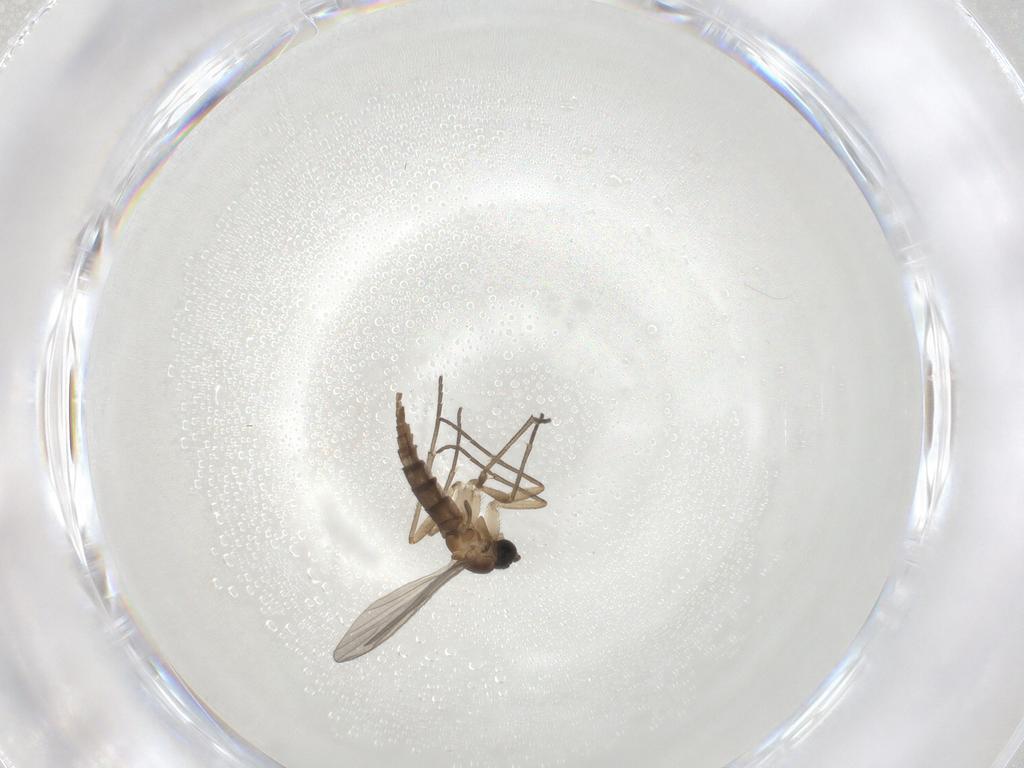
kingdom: Animalia
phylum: Arthropoda
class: Insecta
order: Diptera
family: Sciaridae
